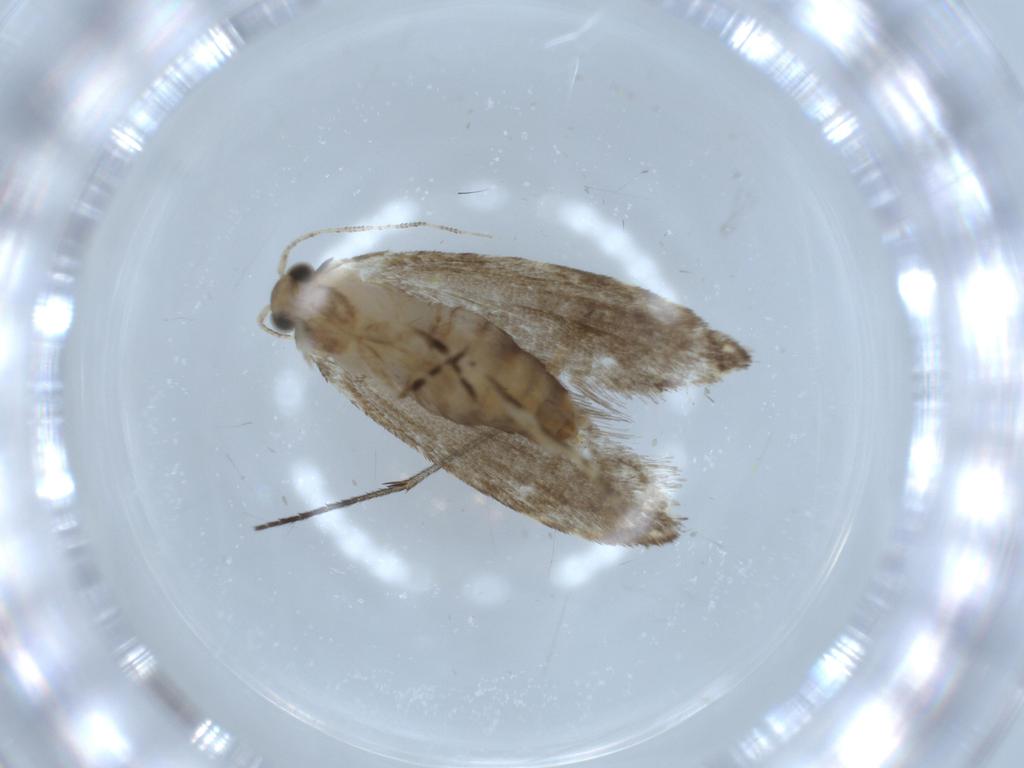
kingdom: Animalia
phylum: Arthropoda
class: Insecta
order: Lepidoptera
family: Tineidae
